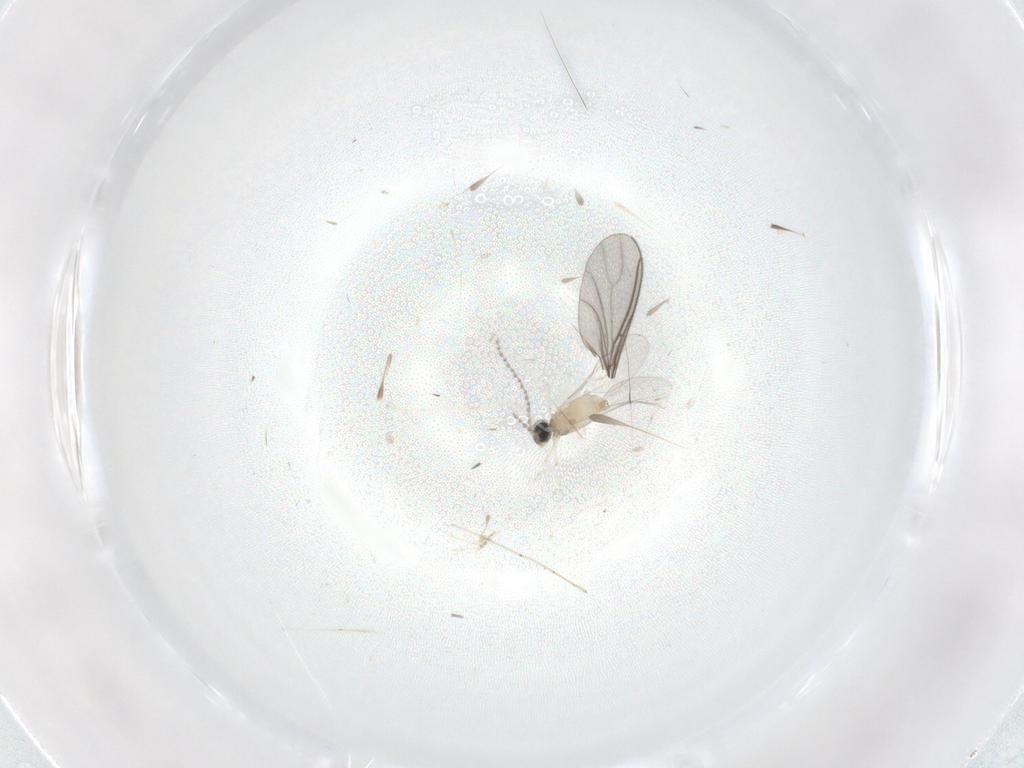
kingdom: Animalia
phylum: Arthropoda
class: Insecta
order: Diptera
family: Cecidomyiidae
